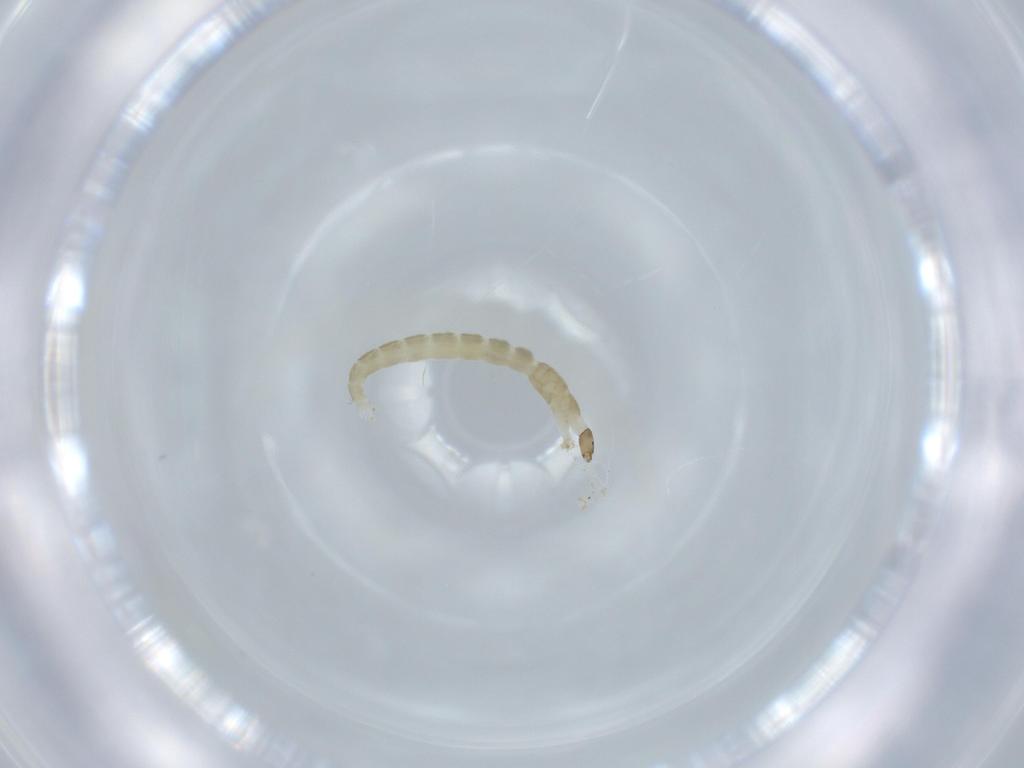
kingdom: Animalia
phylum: Arthropoda
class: Insecta
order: Diptera
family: Chironomidae
